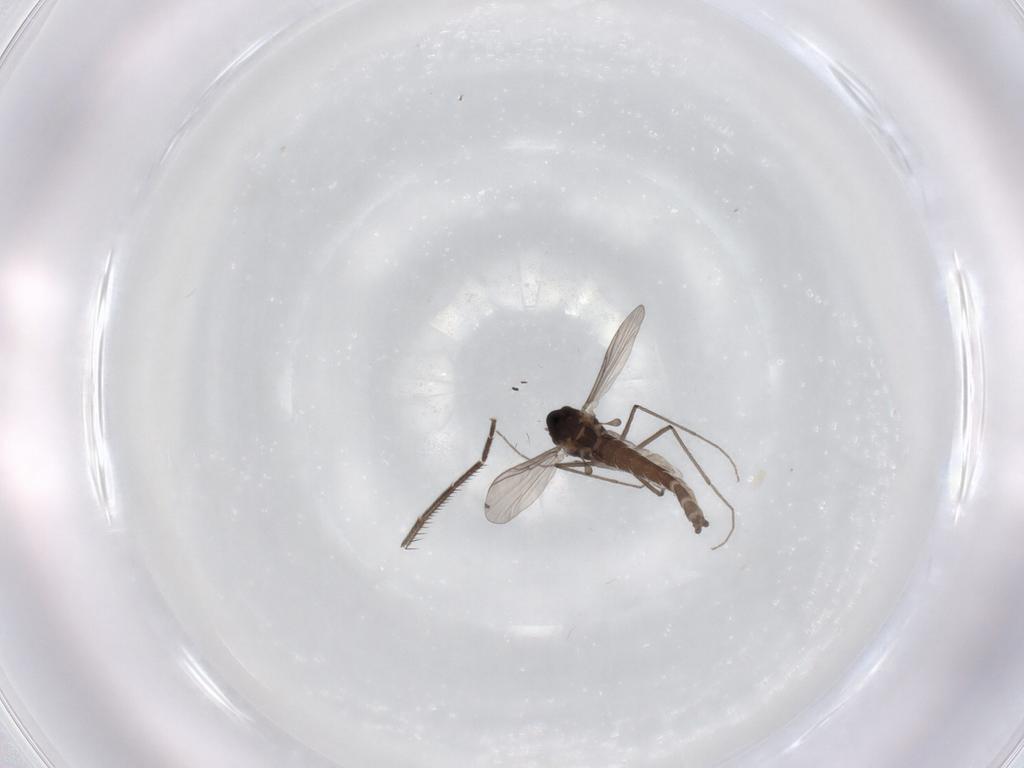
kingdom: Animalia
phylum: Arthropoda
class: Insecta
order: Diptera
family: Chironomidae
